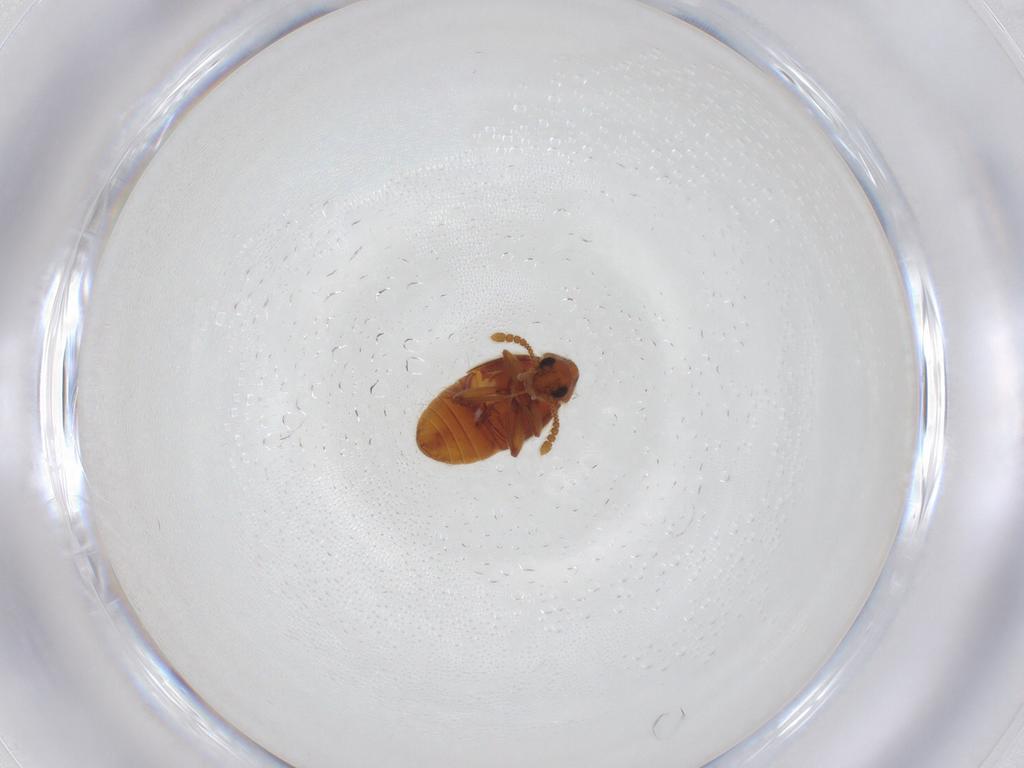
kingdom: Animalia
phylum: Arthropoda
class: Insecta
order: Coleoptera
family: Staphylinidae
